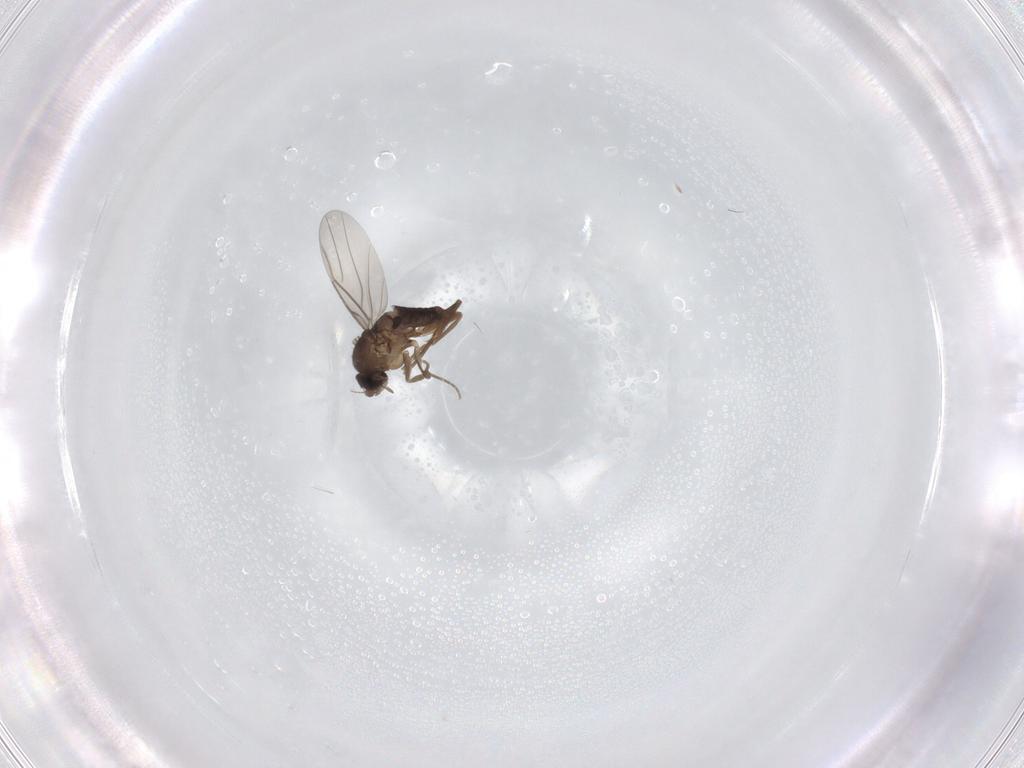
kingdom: Animalia
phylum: Arthropoda
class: Insecta
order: Diptera
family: Phoridae
